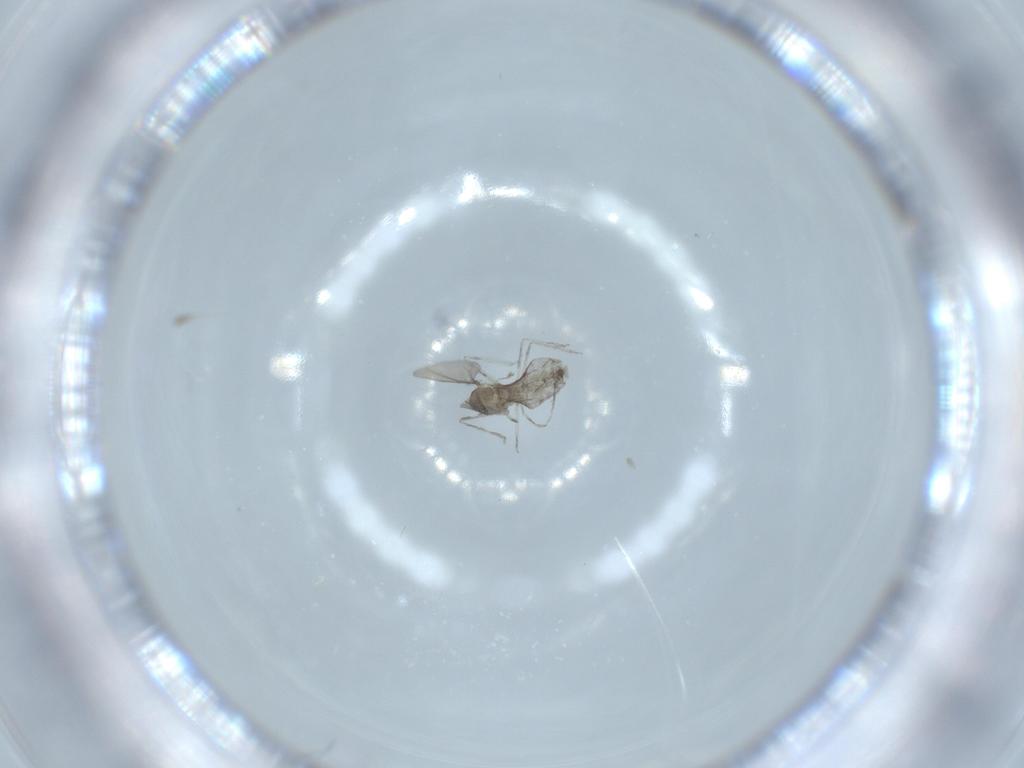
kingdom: Animalia
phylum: Arthropoda
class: Insecta
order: Diptera
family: Cecidomyiidae
